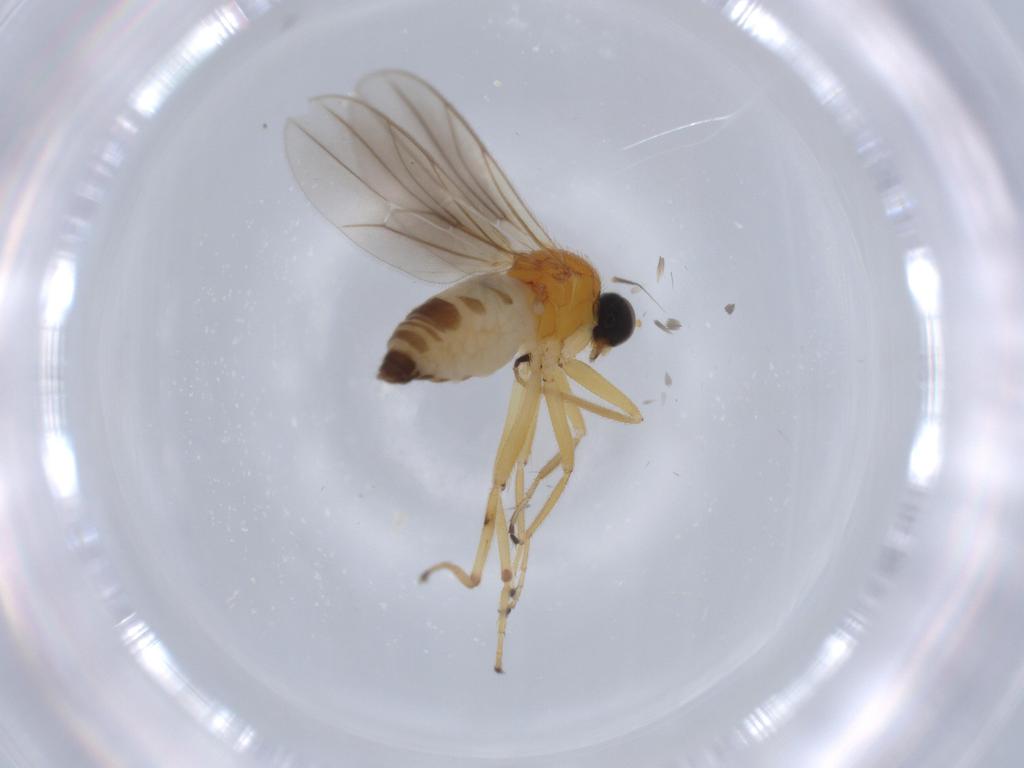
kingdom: Animalia
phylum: Arthropoda
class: Insecta
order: Diptera
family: Hybotidae
